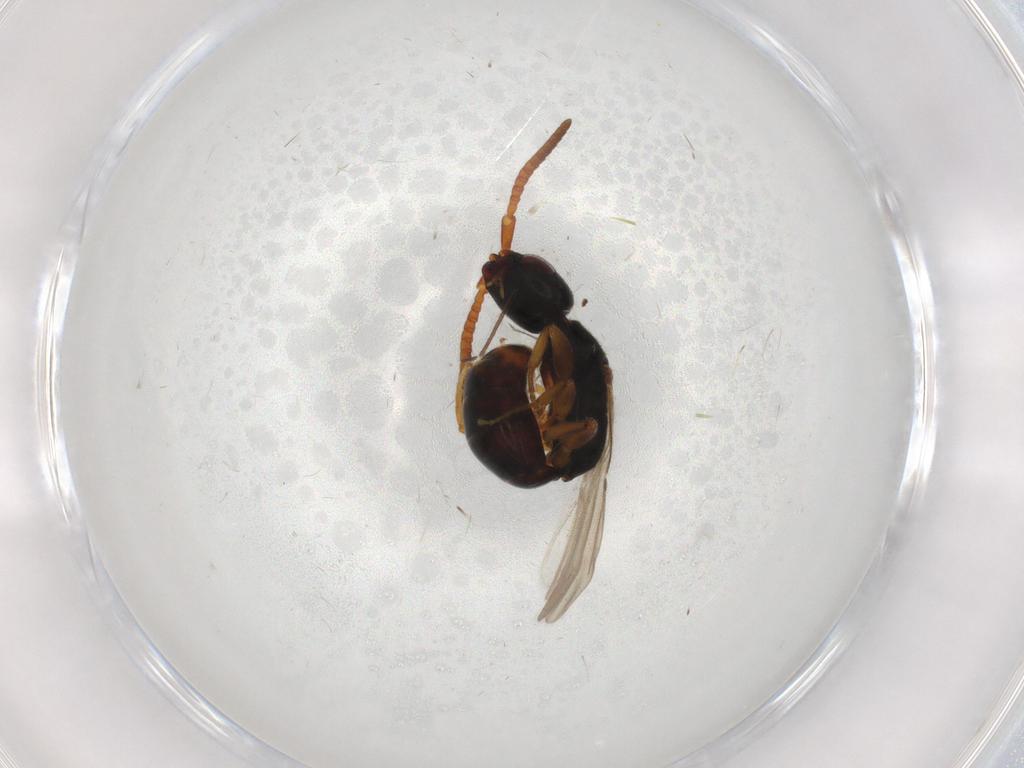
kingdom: Animalia
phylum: Arthropoda
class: Insecta
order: Hymenoptera
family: Bethylidae
